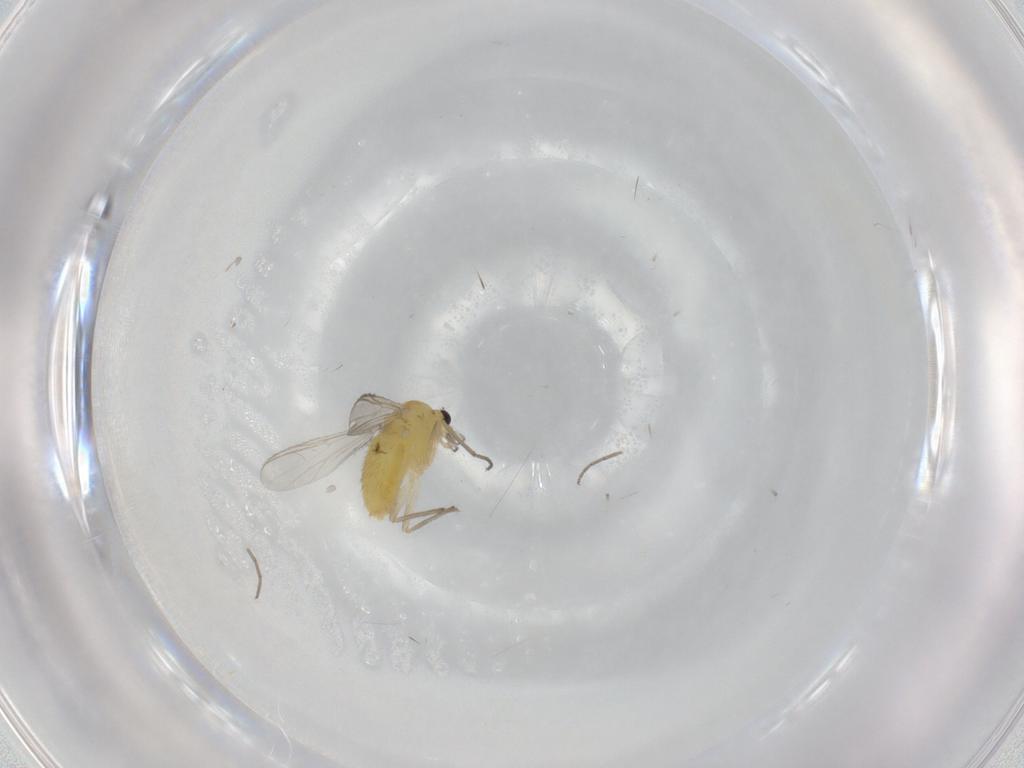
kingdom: Animalia
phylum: Arthropoda
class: Insecta
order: Diptera
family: Chironomidae
